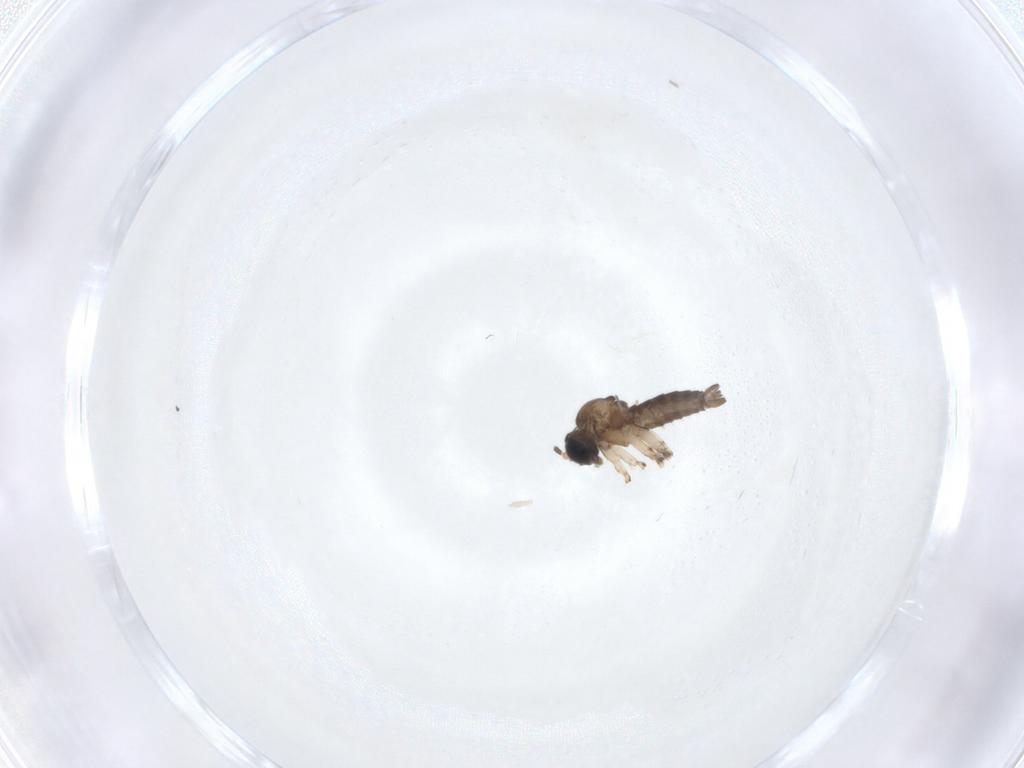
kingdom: Animalia
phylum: Arthropoda
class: Insecta
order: Diptera
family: Sciaridae
